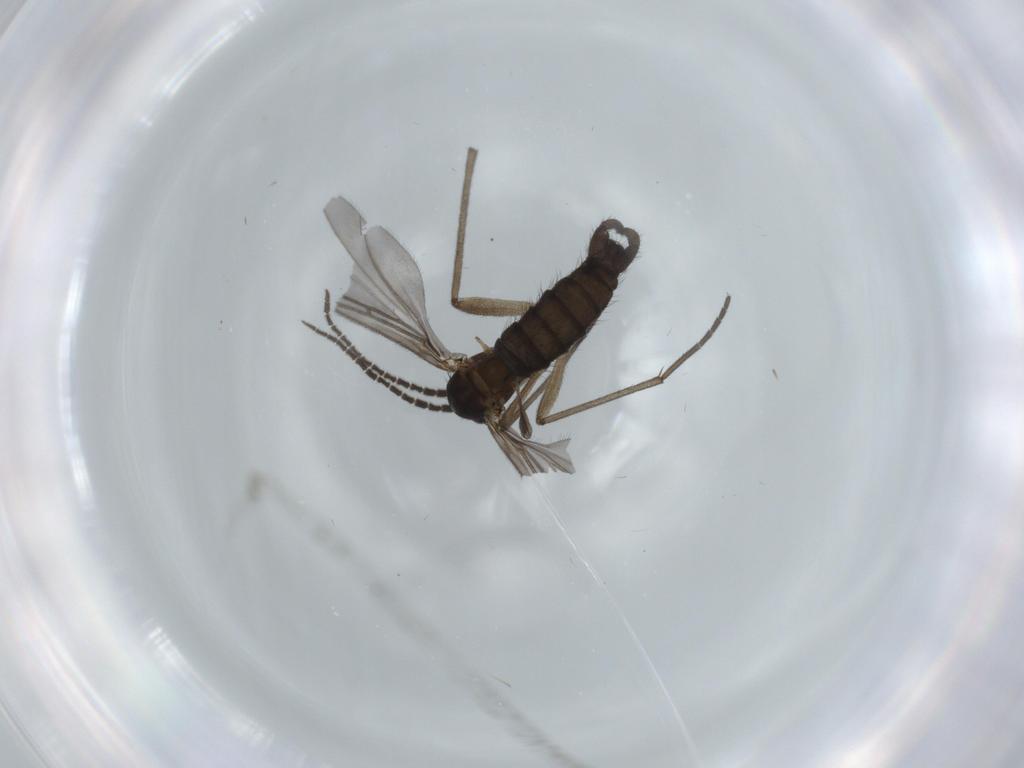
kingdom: Animalia
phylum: Arthropoda
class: Insecta
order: Diptera
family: Sciaridae
